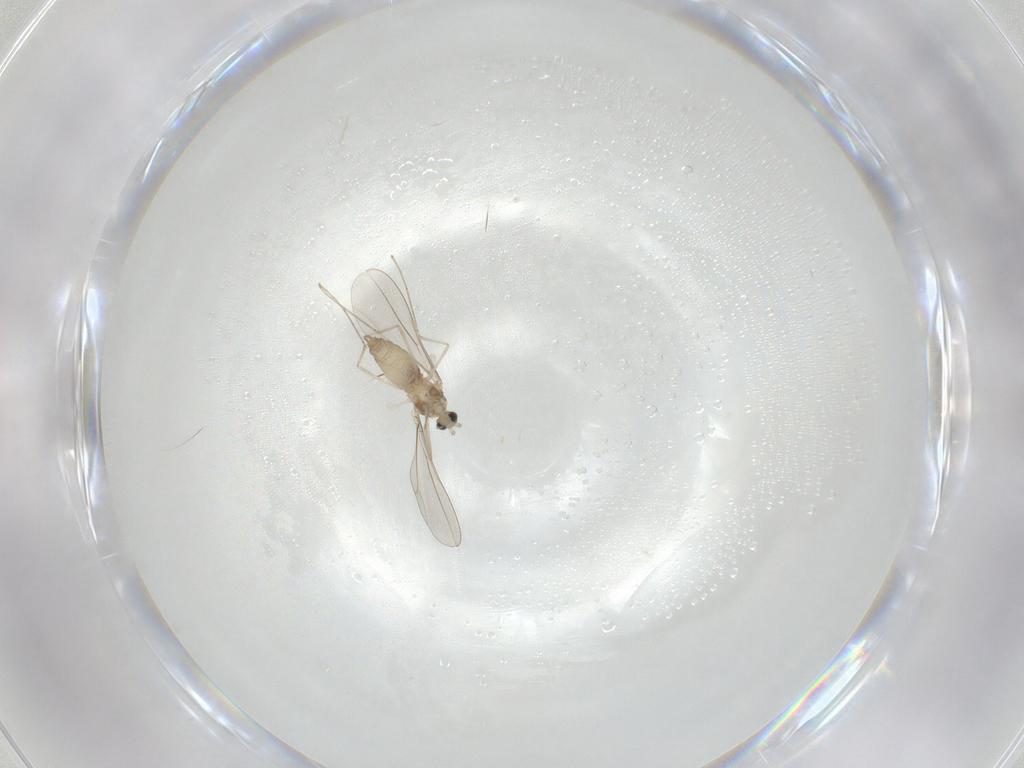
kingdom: Animalia
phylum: Arthropoda
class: Insecta
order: Diptera
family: Cecidomyiidae
